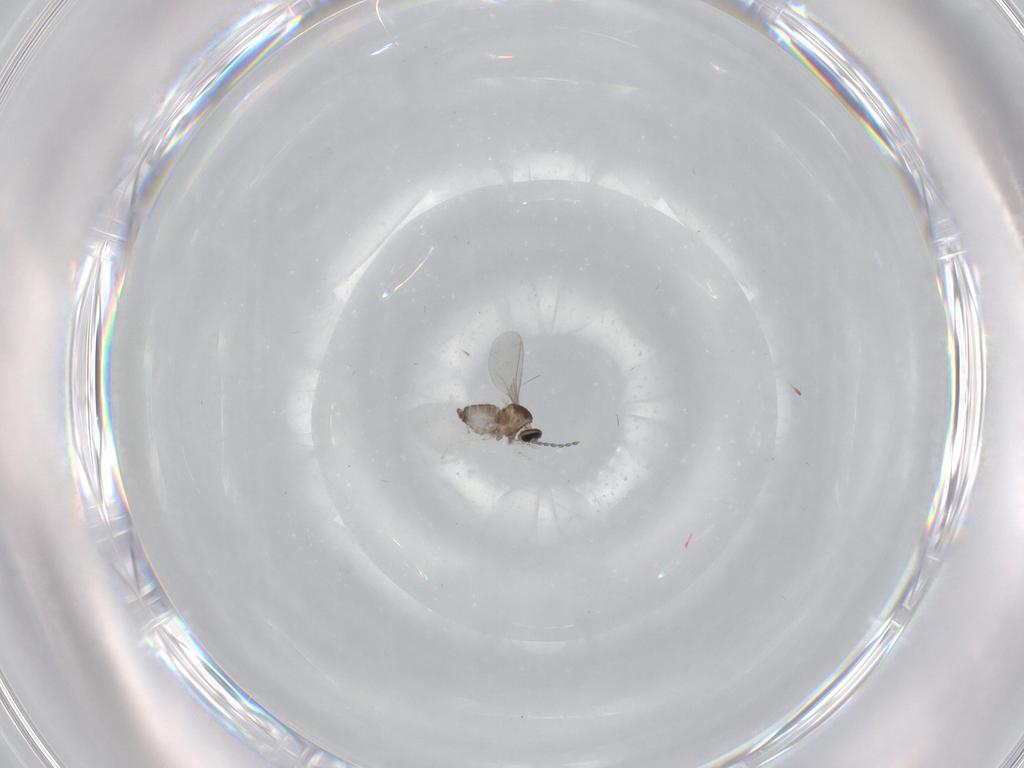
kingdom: Animalia
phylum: Arthropoda
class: Insecta
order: Diptera
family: Cecidomyiidae
